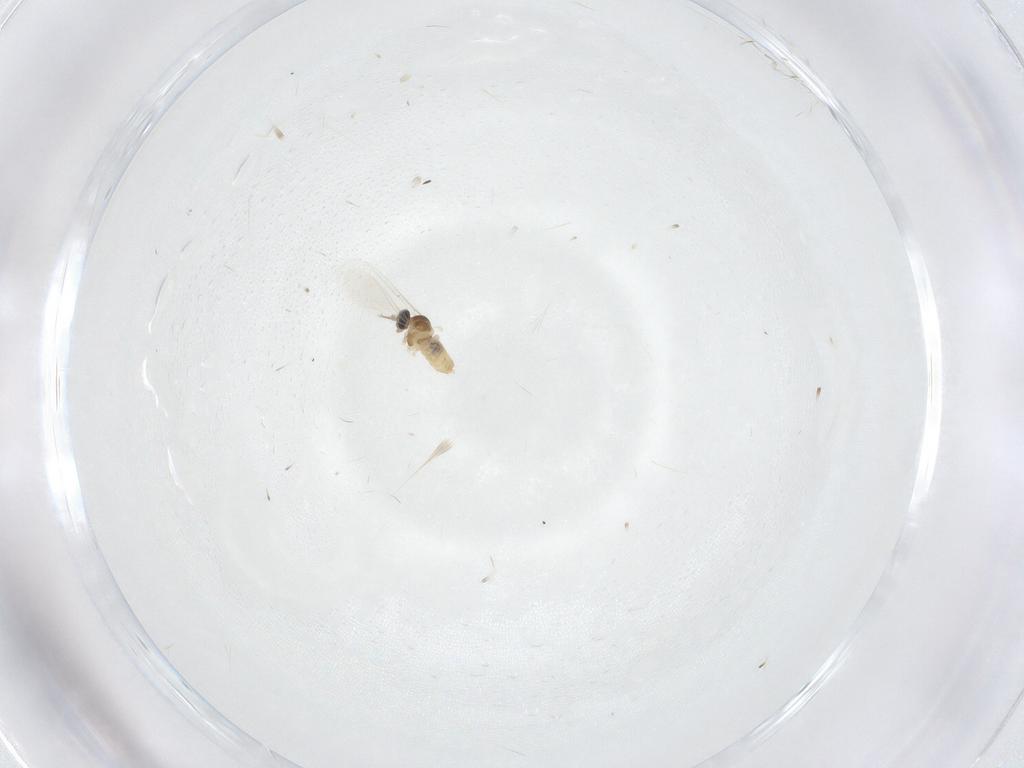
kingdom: Animalia
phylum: Arthropoda
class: Insecta
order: Diptera
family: Cecidomyiidae
